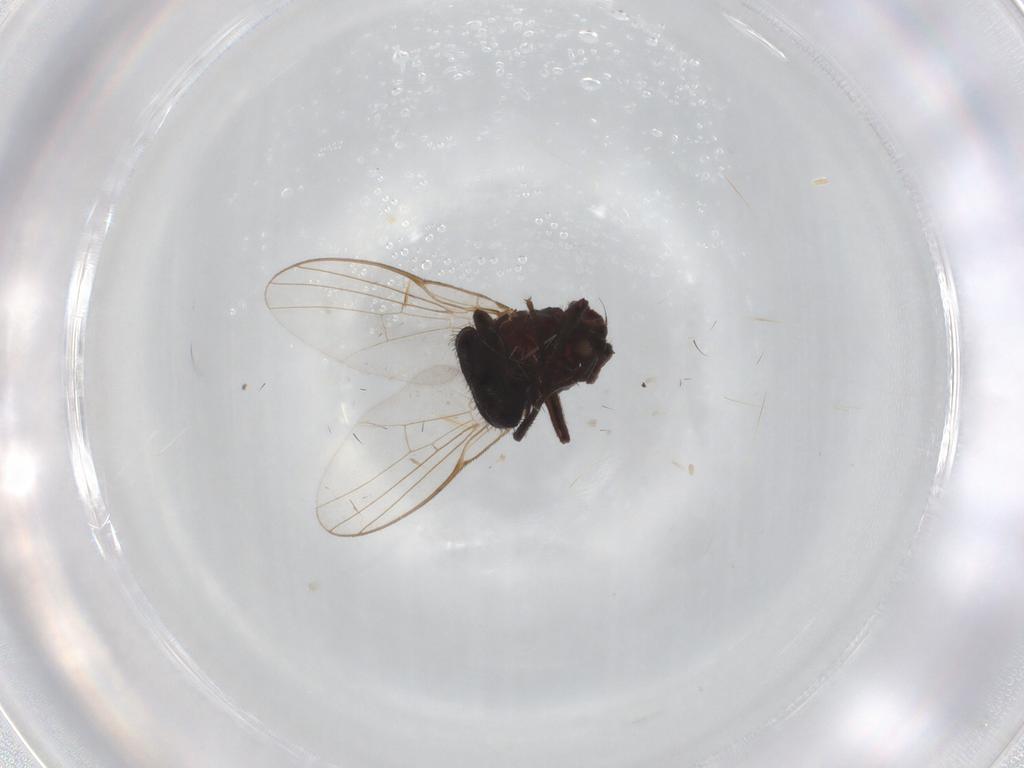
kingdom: Animalia
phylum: Arthropoda
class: Insecta
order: Diptera
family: Agromyzidae
